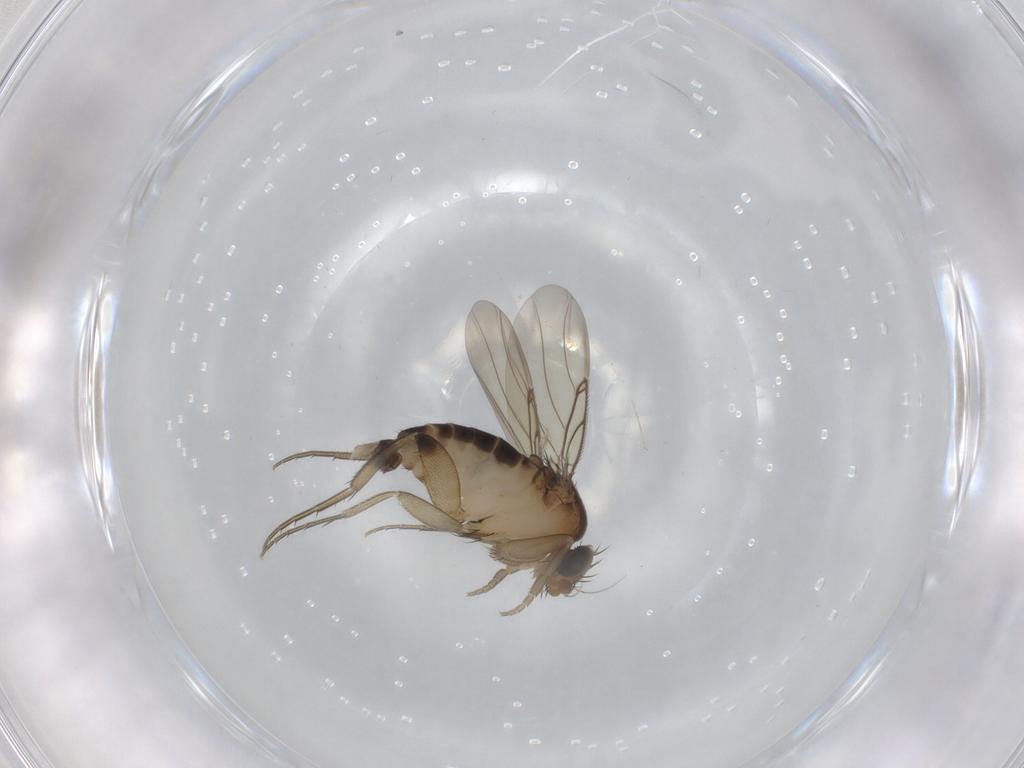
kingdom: Animalia
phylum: Arthropoda
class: Insecta
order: Diptera
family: Phoridae
